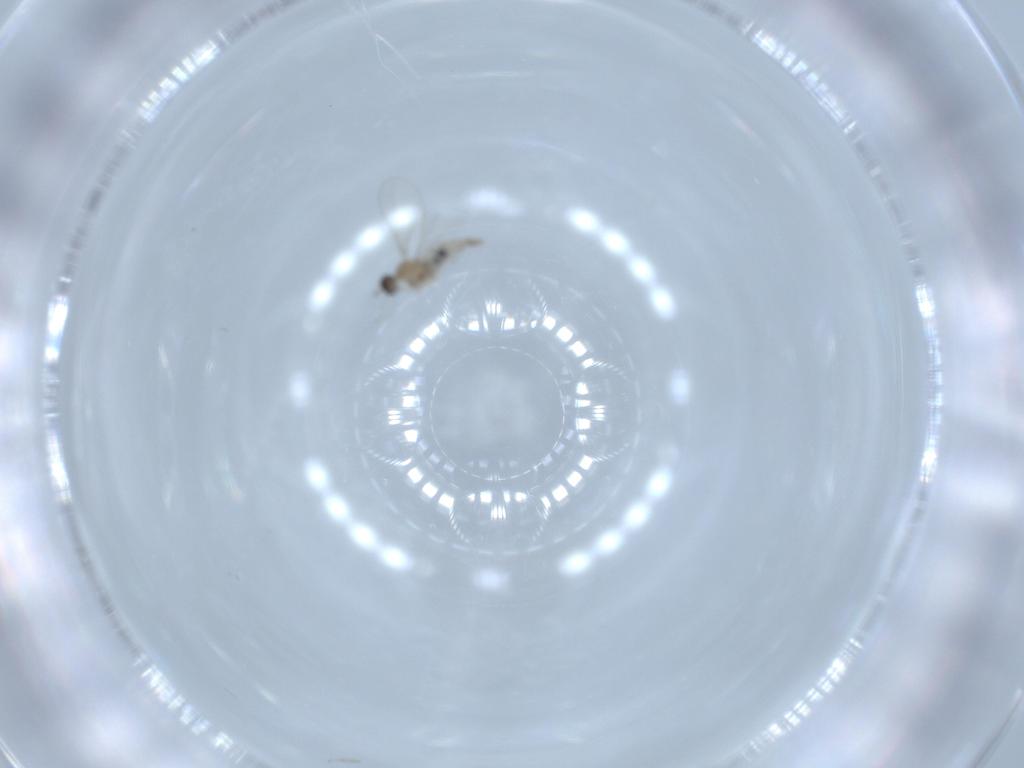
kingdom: Animalia
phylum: Arthropoda
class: Insecta
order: Diptera
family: Cecidomyiidae
